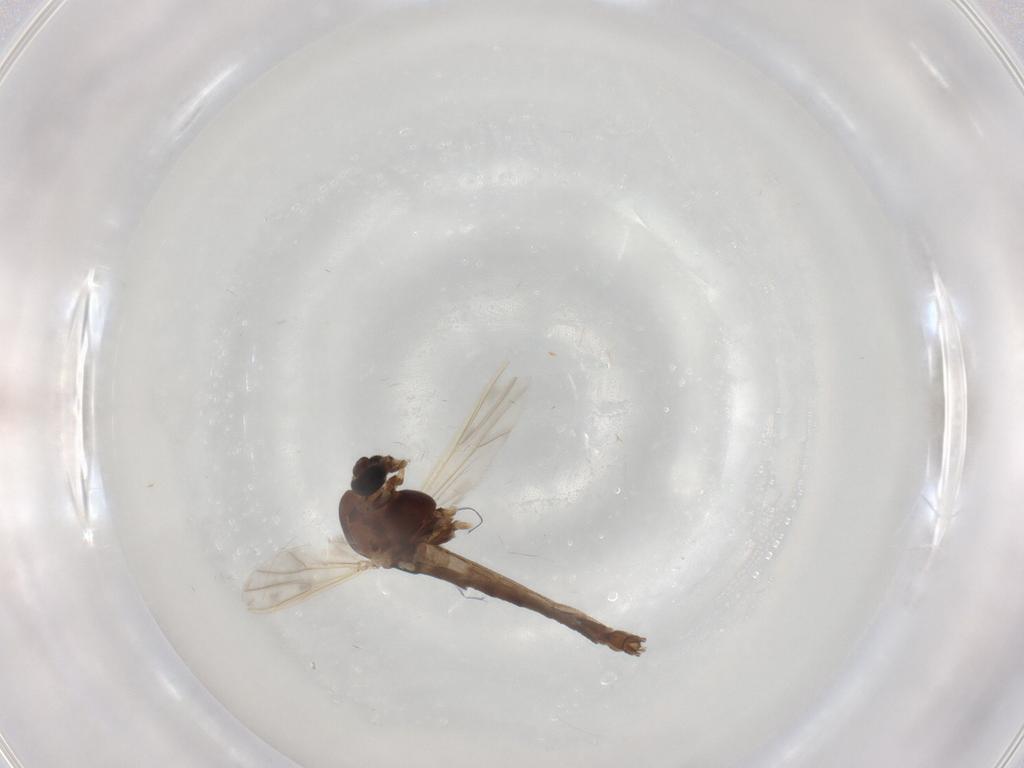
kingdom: Animalia
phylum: Arthropoda
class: Insecta
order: Diptera
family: Chironomidae
